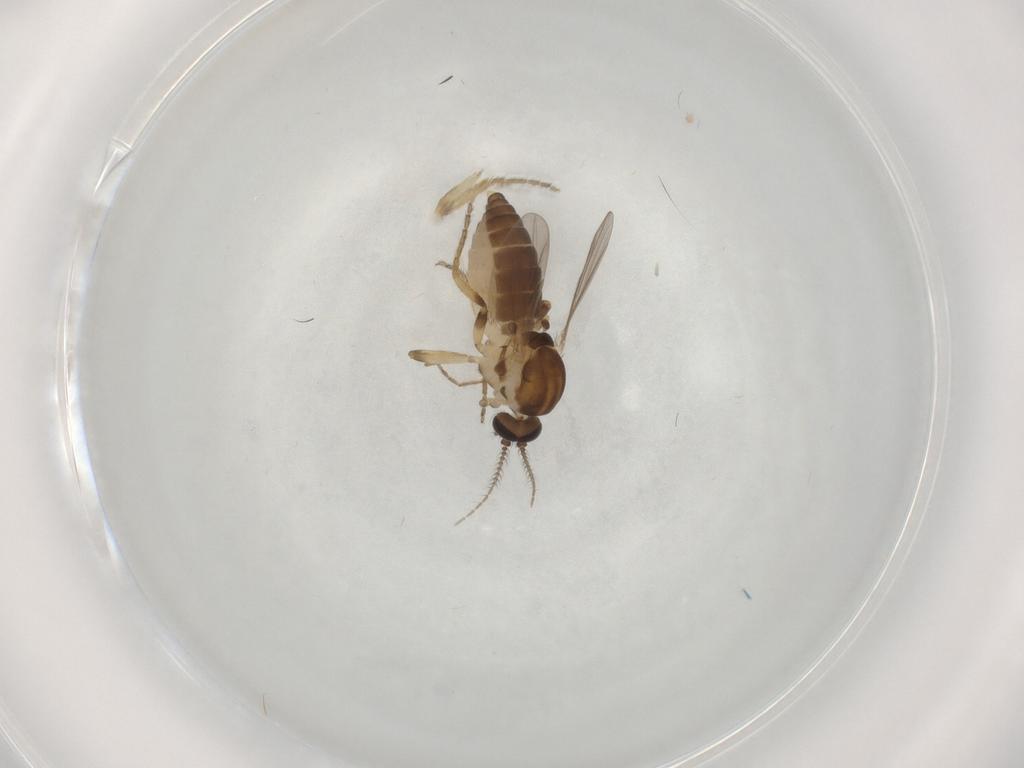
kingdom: Animalia
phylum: Arthropoda
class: Insecta
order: Diptera
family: Ceratopogonidae
